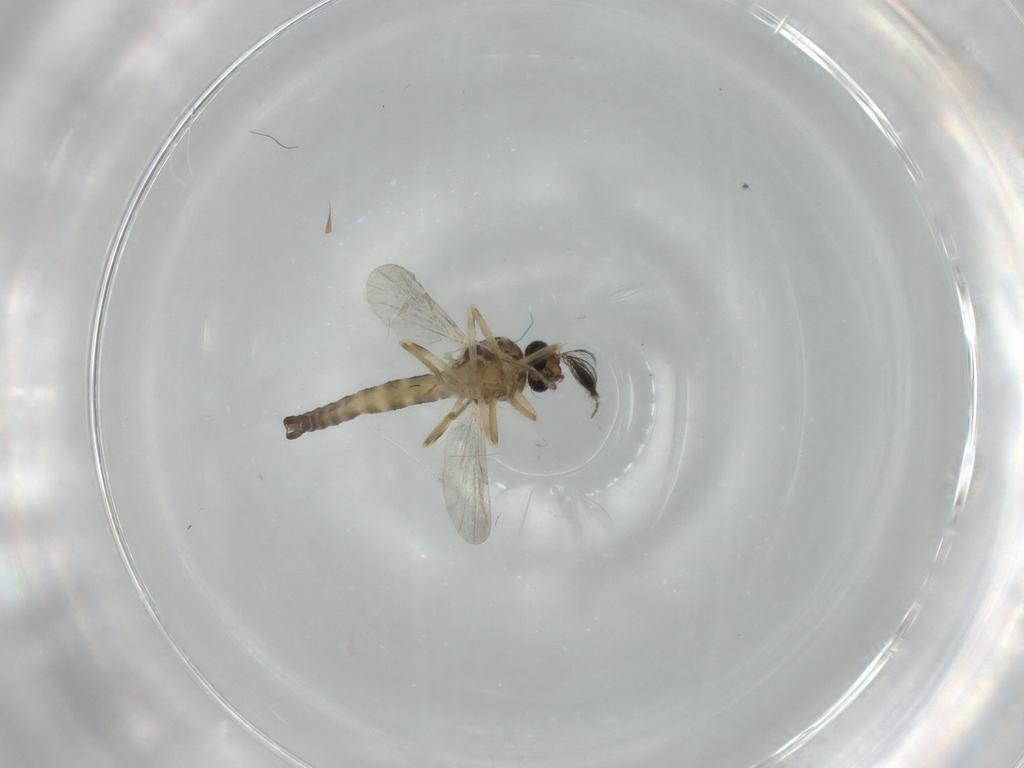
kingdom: Animalia
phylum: Arthropoda
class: Insecta
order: Diptera
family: Ceratopogonidae
